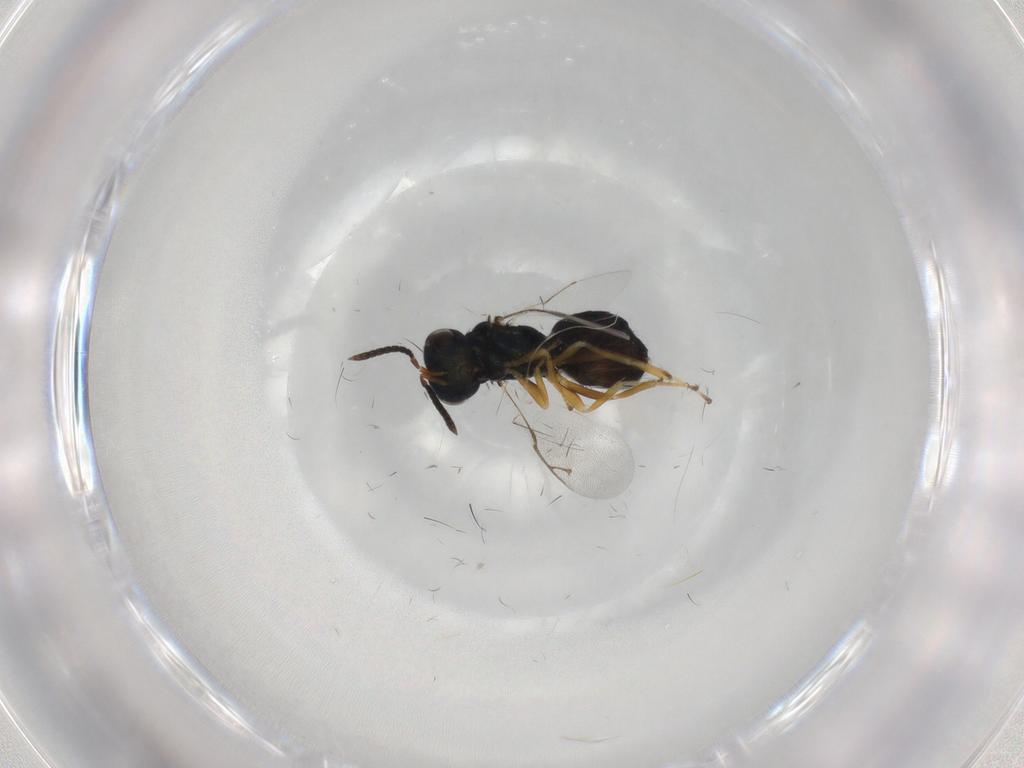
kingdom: Animalia
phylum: Arthropoda
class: Insecta
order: Hymenoptera
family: Pteromalidae
